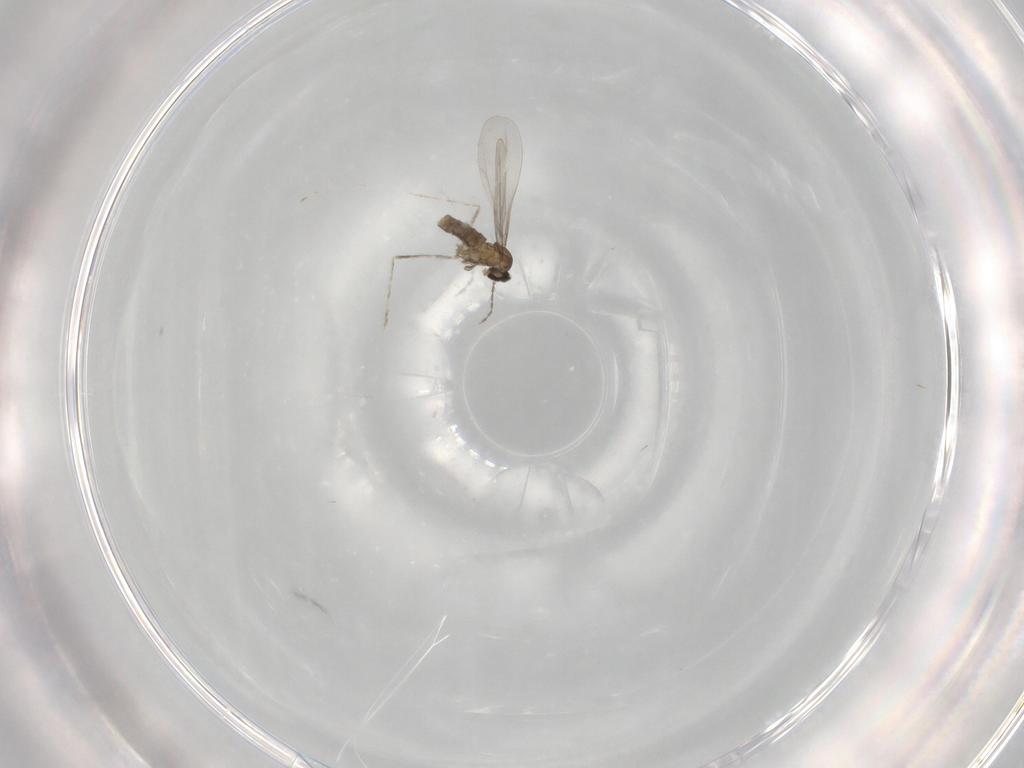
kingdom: Animalia
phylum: Arthropoda
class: Insecta
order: Diptera
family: Cecidomyiidae
